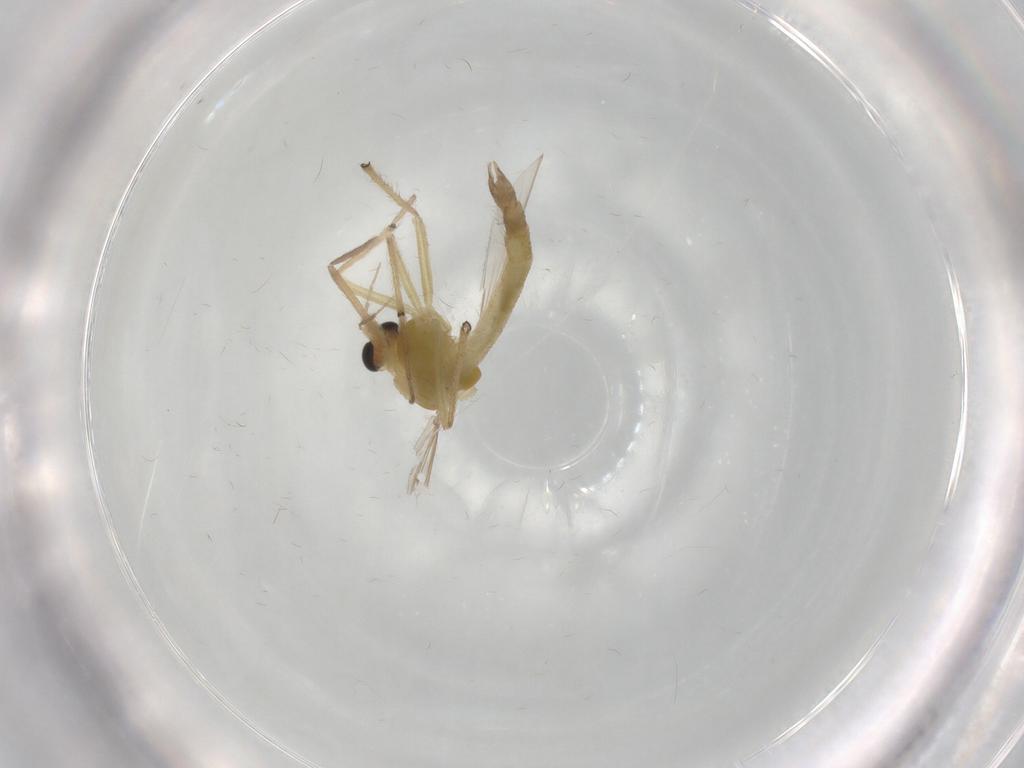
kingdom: Animalia
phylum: Arthropoda
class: Insecta
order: Diptera
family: Chironomidae
